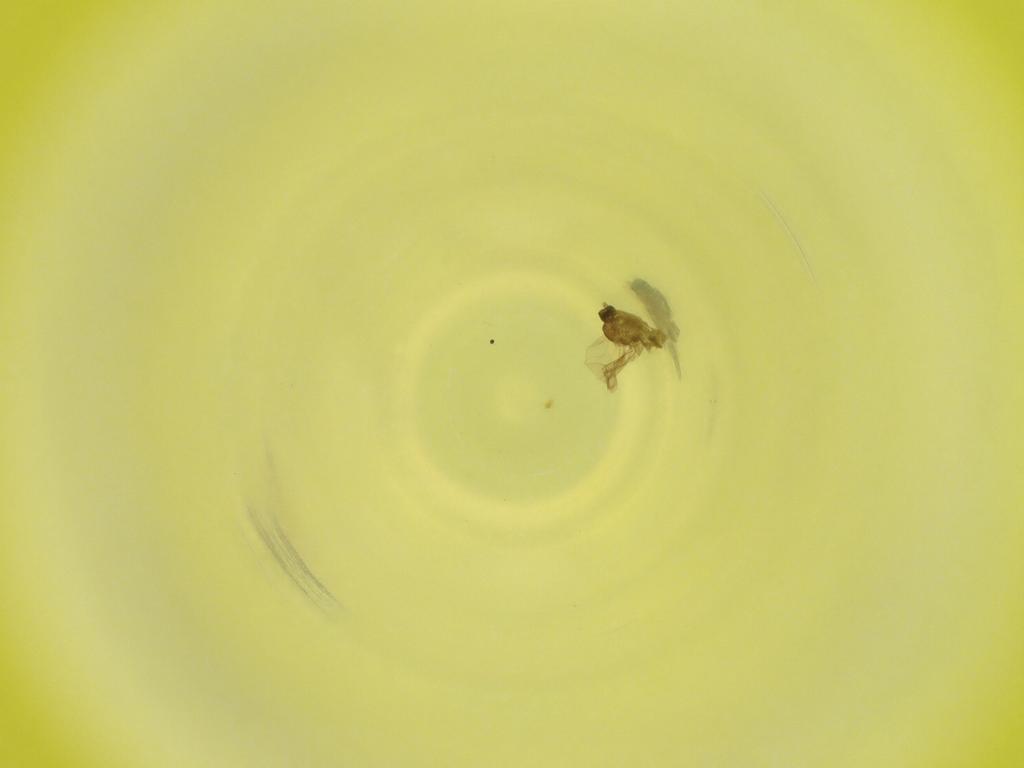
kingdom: Animalia
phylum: Arthropoda
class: Insecta
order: Diptera
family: Cecidomyiidae
